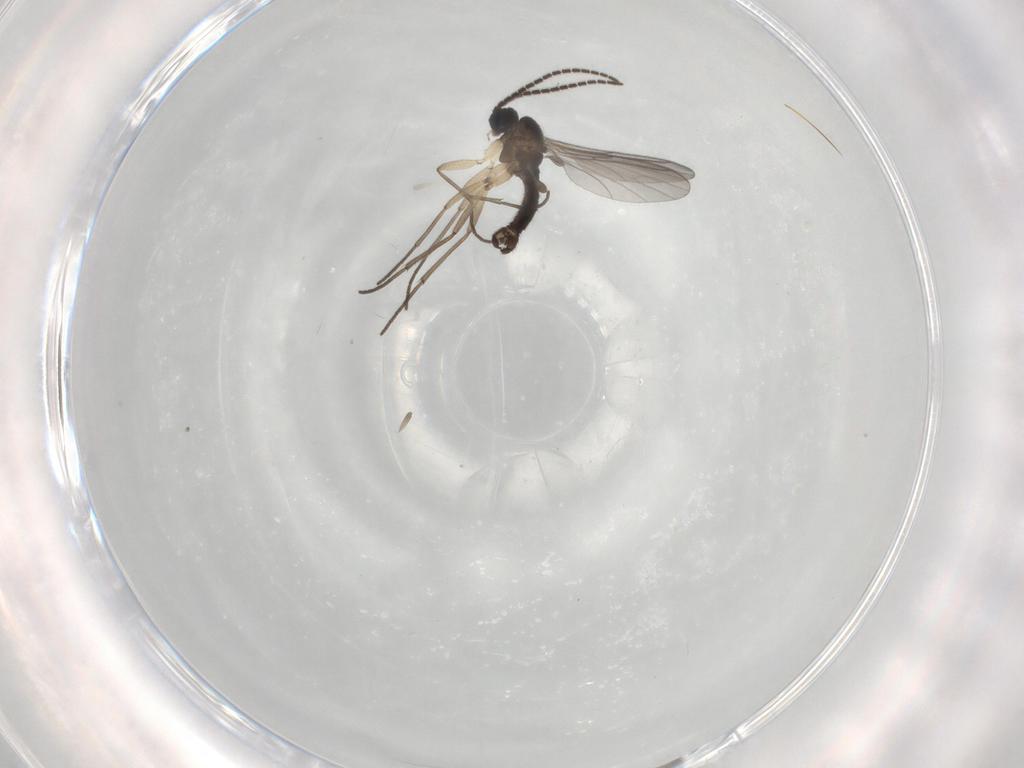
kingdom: Animalia
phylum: Arthropoda
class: Insecta
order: Diptera
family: Sciaridae
